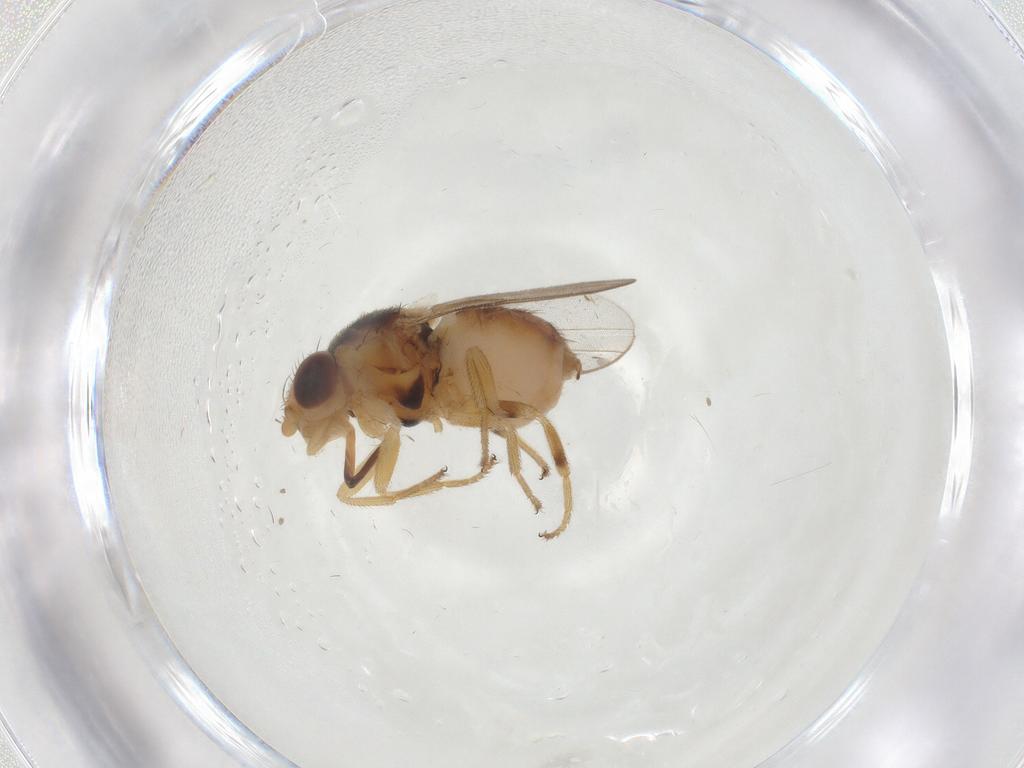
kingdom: Animalia
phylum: Arthropoda
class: Insecta
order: Diptera
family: Chloropidae
